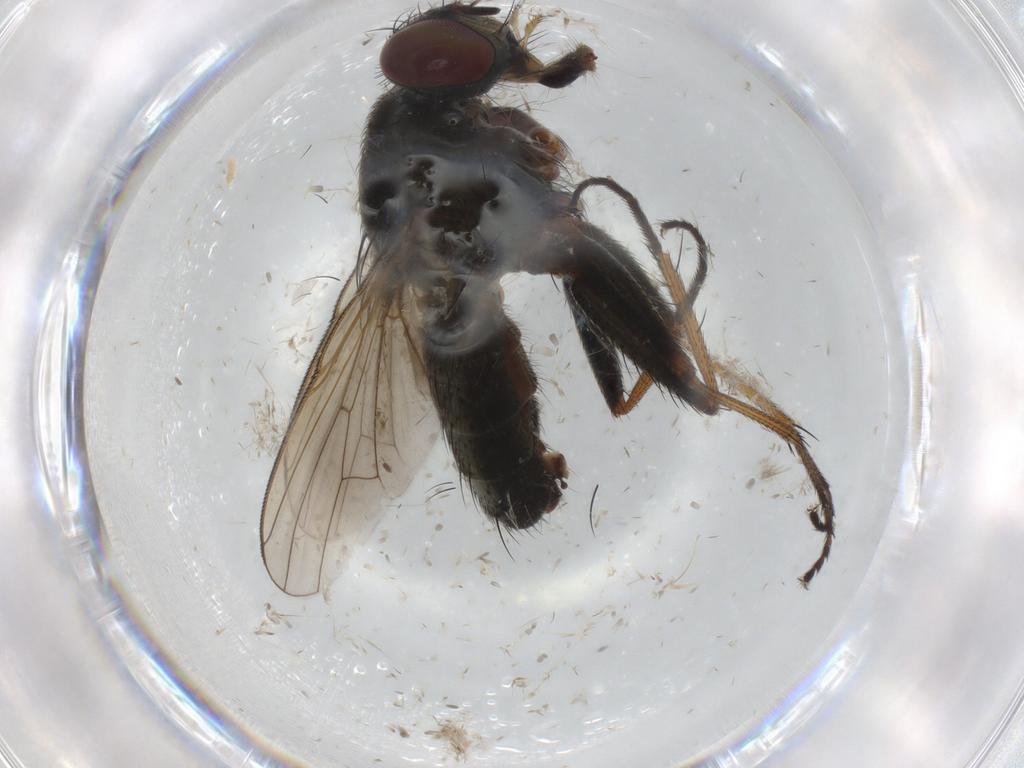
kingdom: Animalia
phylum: Arthropoda
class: Insecta
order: Diptera
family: Muscidae
